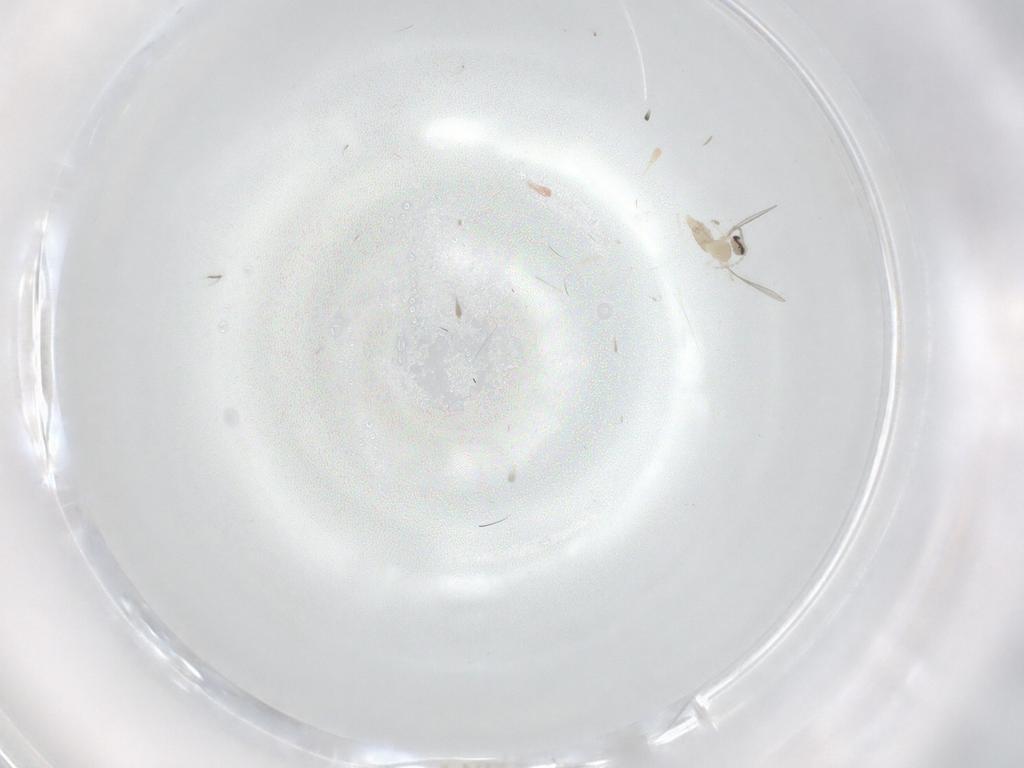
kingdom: Animalia
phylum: Arthropoda
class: Insecta
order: Diptera
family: Cecidomyiidae
